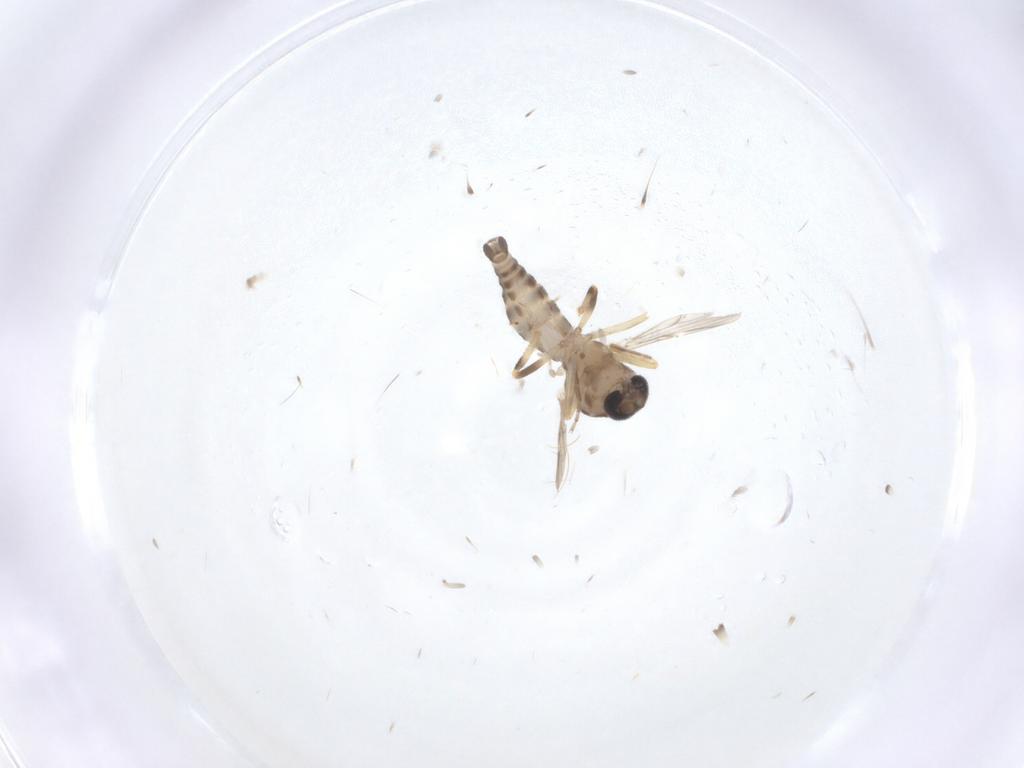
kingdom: Animalia
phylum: Arthropoda
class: Insecta
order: Diptera
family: Ceratopogonidae
